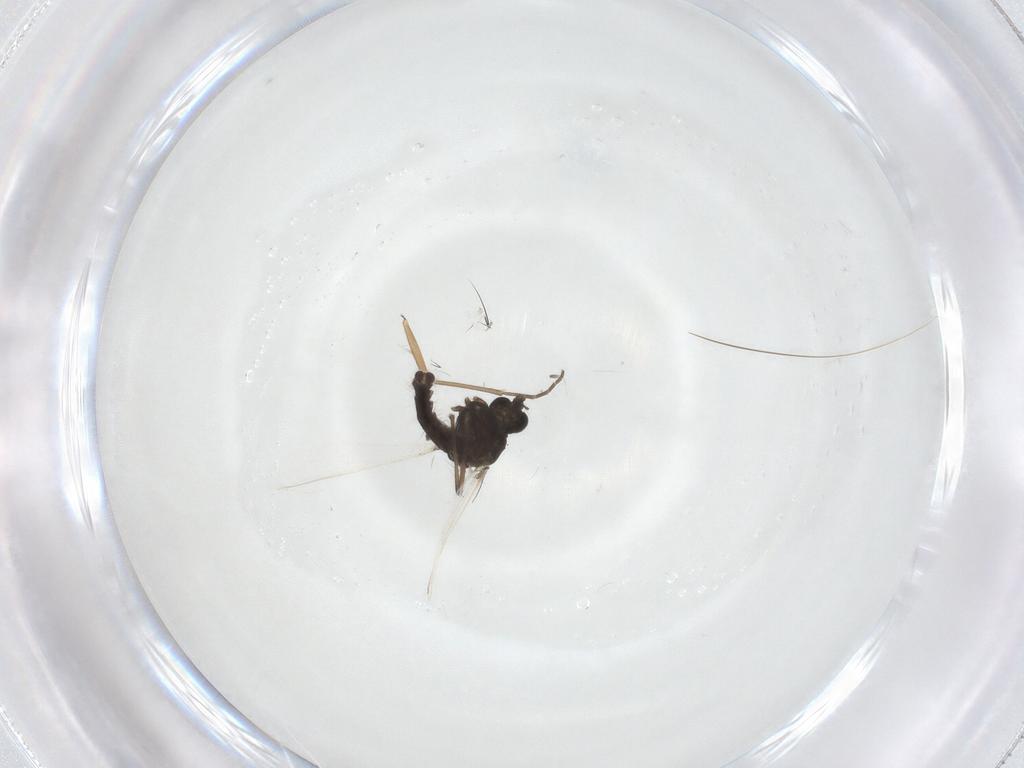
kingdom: Animalia
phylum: Arthropoda
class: Insecta
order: Diptera
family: Sciaridae
